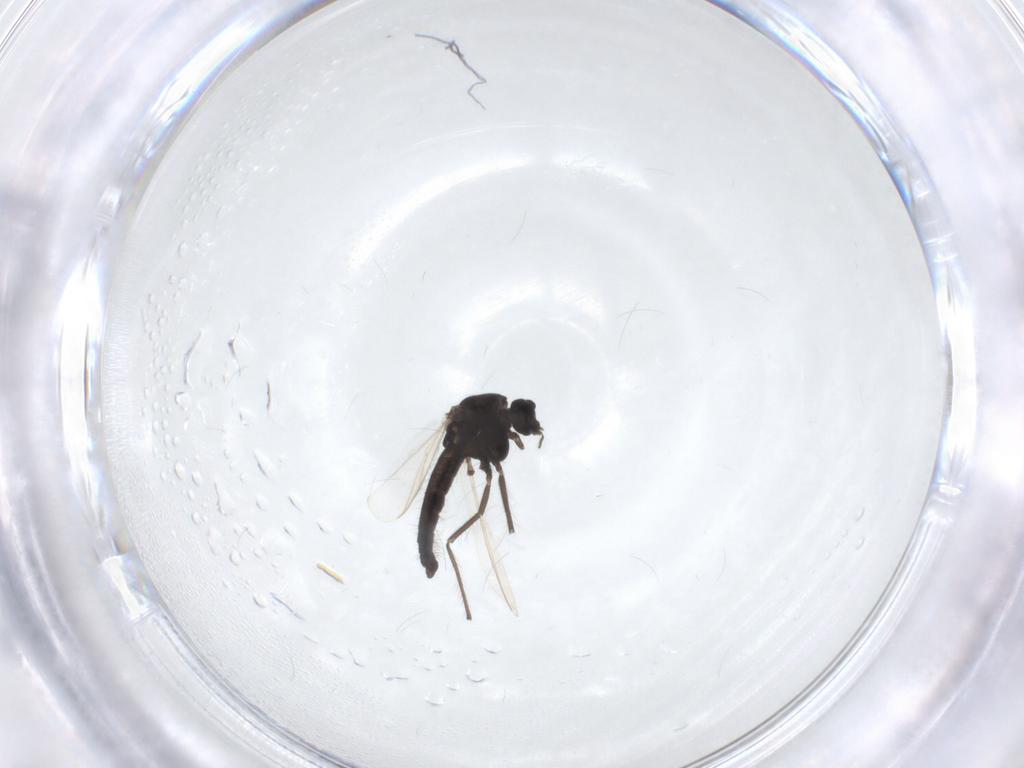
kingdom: Animalia
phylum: Arthropoda
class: Insecta
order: Diptera
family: Chironomidae
